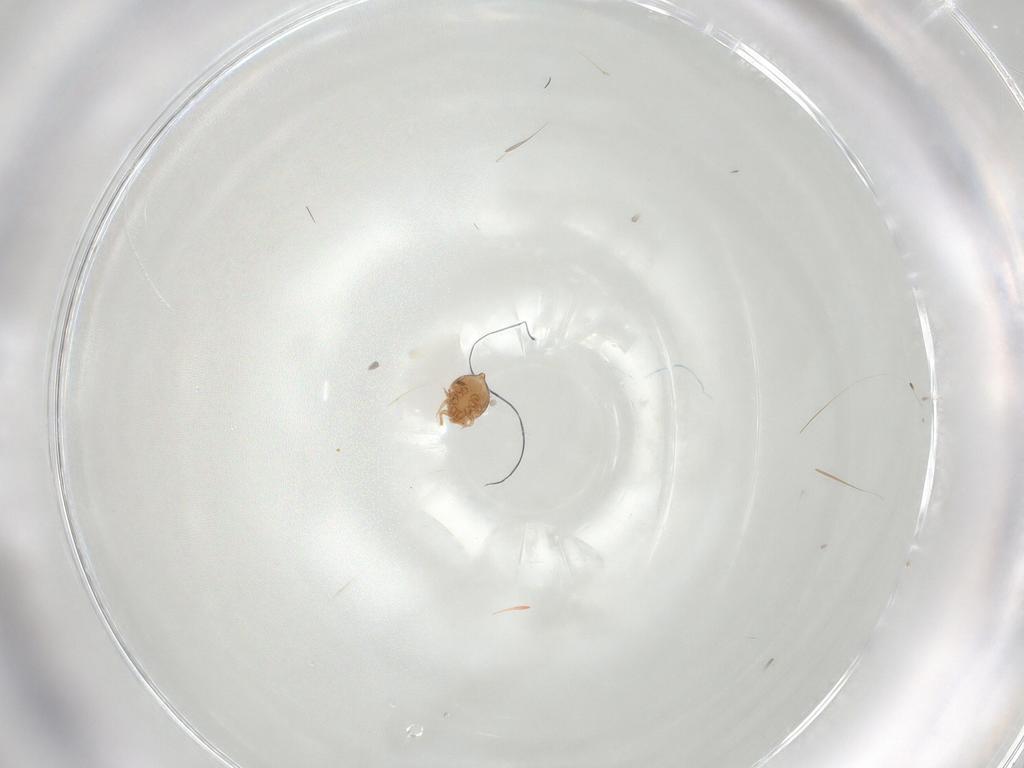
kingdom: Animalia
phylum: Arthropoda
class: Arachnida
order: Mesostigmata
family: Polyaspididae
